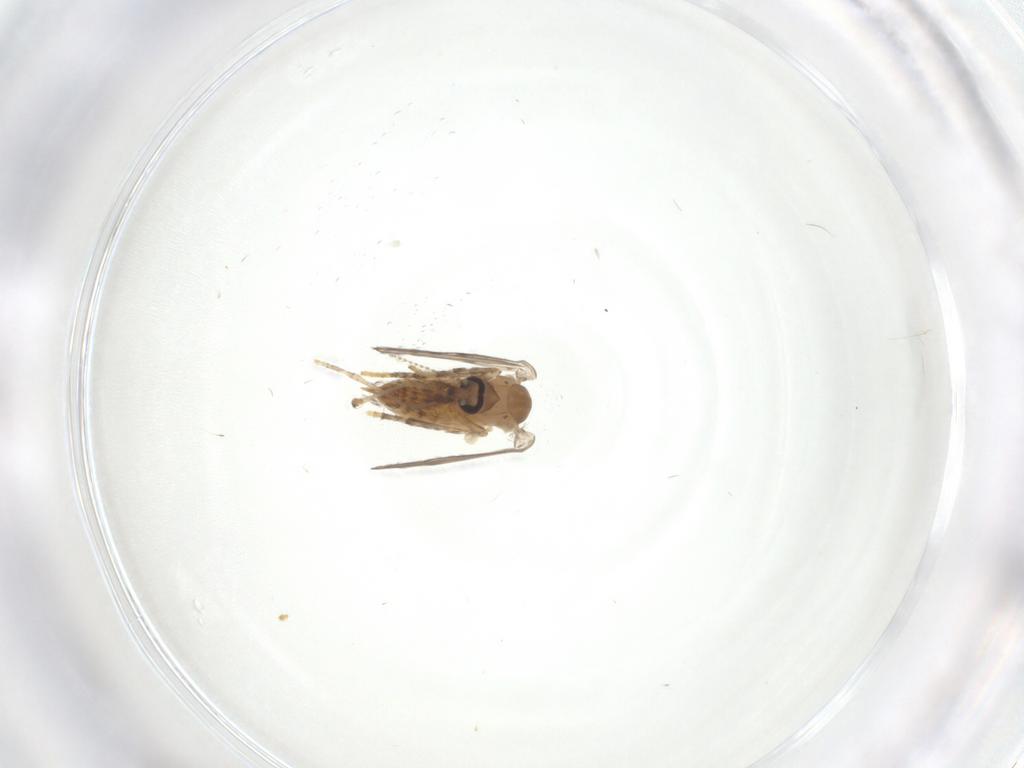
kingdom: Animalia
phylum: Arthropoda
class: Insecta
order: Diptera
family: Psychodidae
